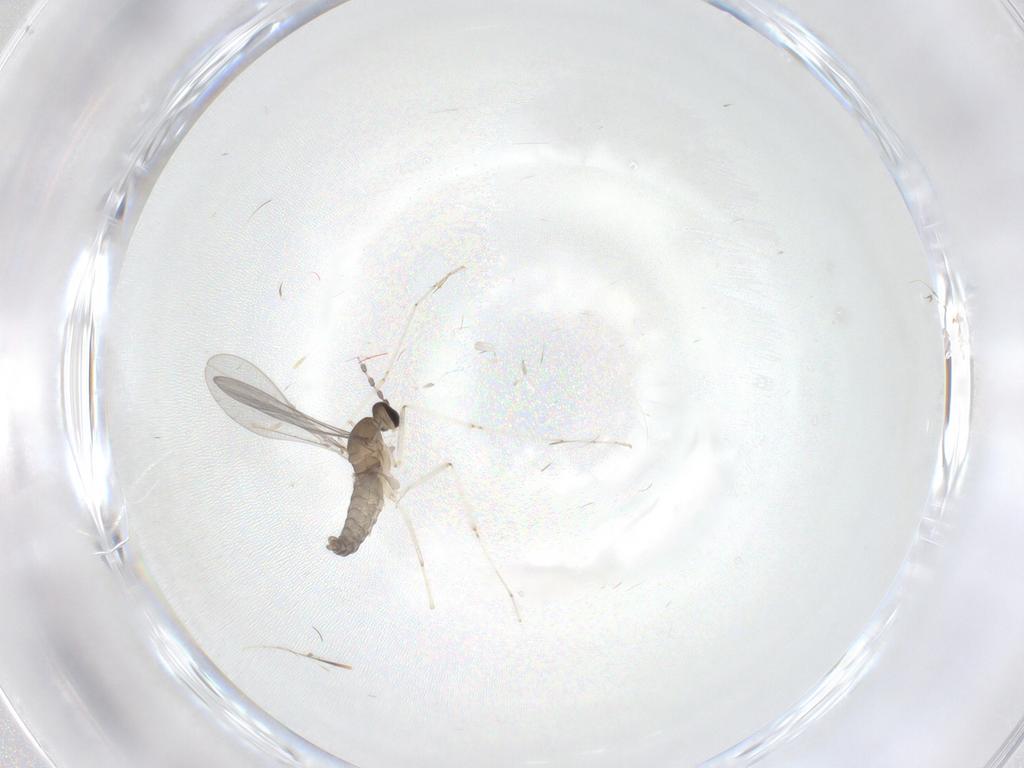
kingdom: Animalia
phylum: Arthropoda
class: Insecta
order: Diptera
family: Cecidomyiidae
